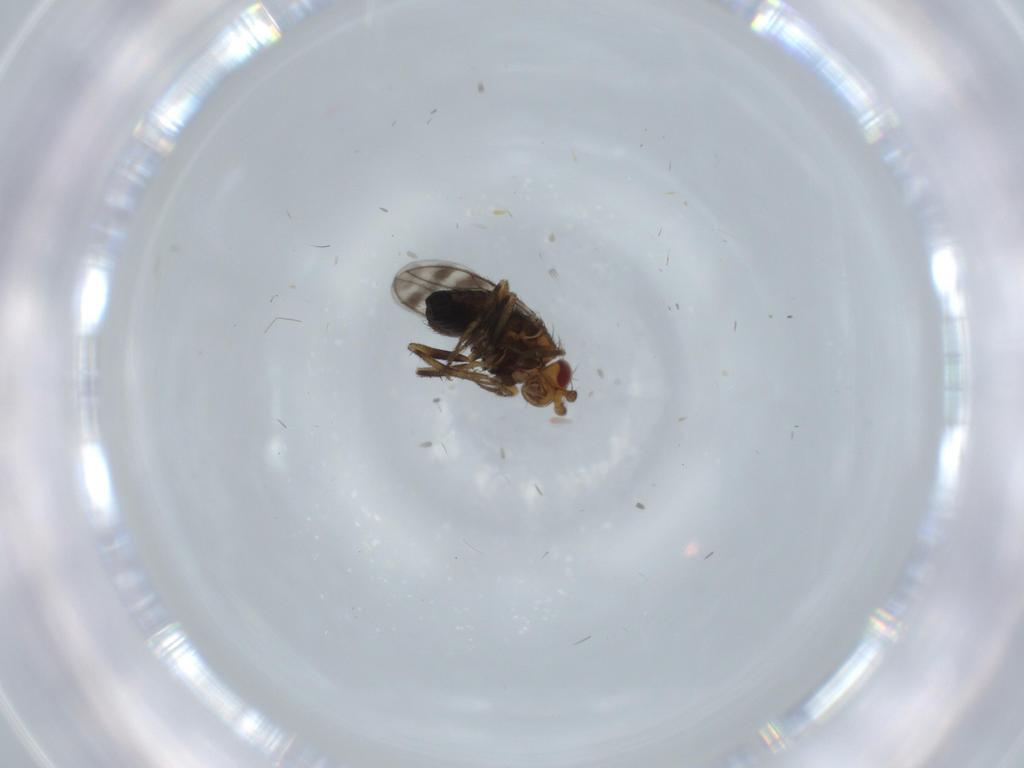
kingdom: Animalia
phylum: Arthropoda
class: Insecta
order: Diptera
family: Sphaeroceridae
